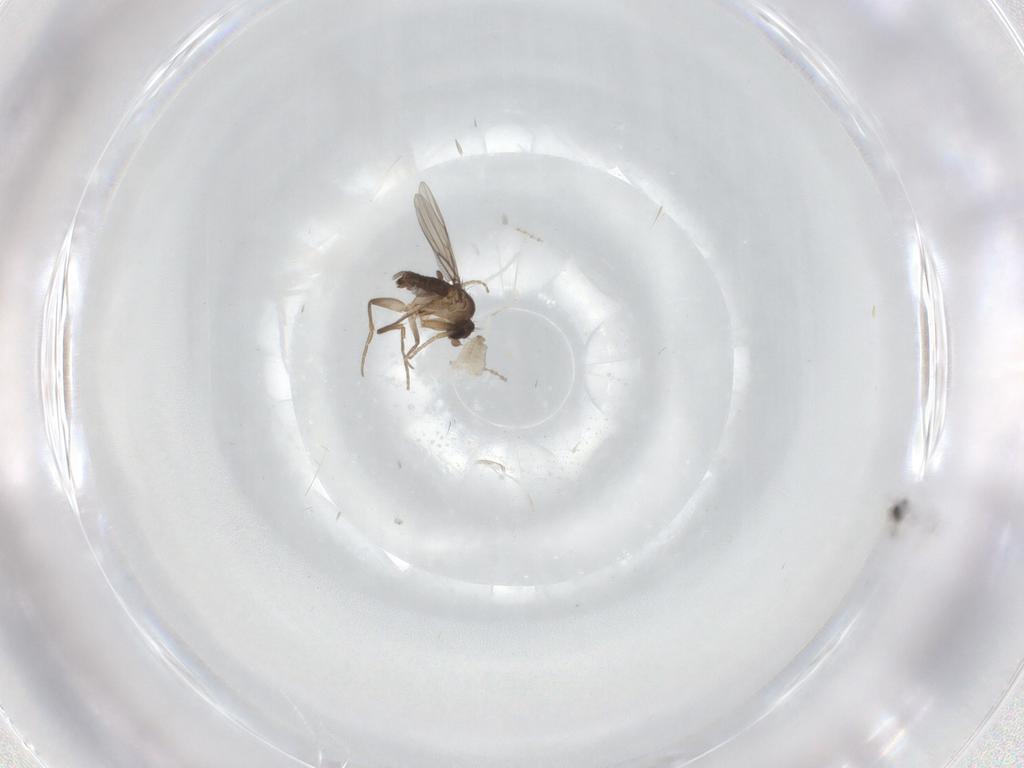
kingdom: Animalia
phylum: Arthropoda
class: Insecta
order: Diptera
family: Cecidomyiidae
